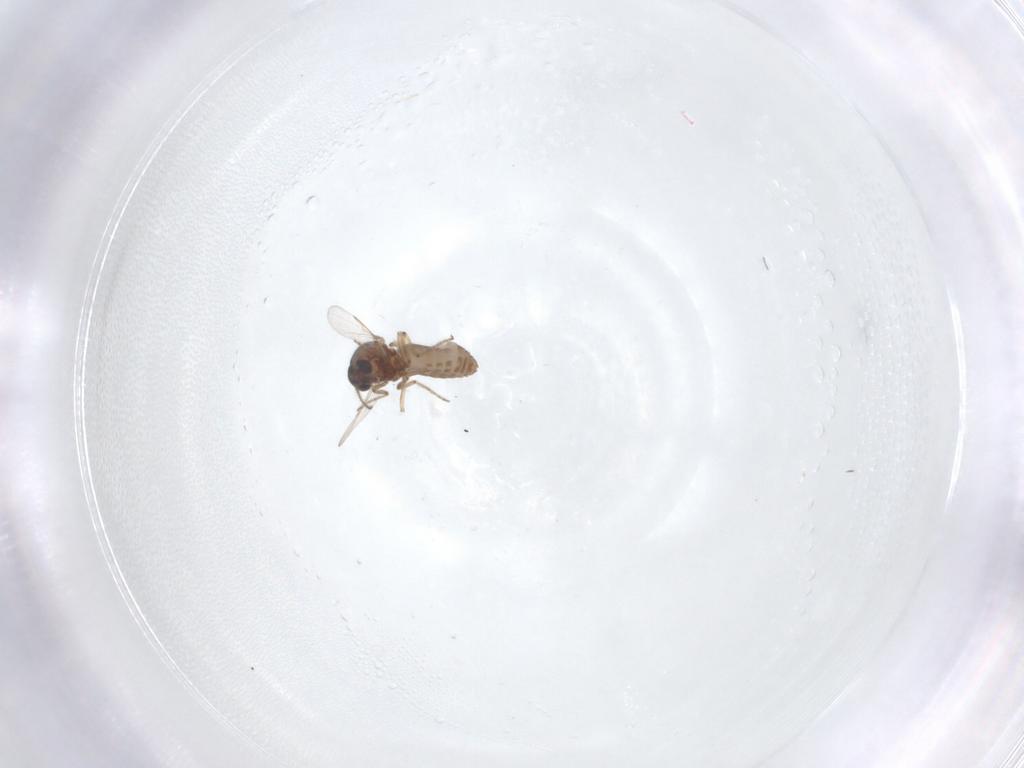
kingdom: Animalia
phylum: Arthropoda
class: Insecta
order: Diptera
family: Ceratopogonidae
